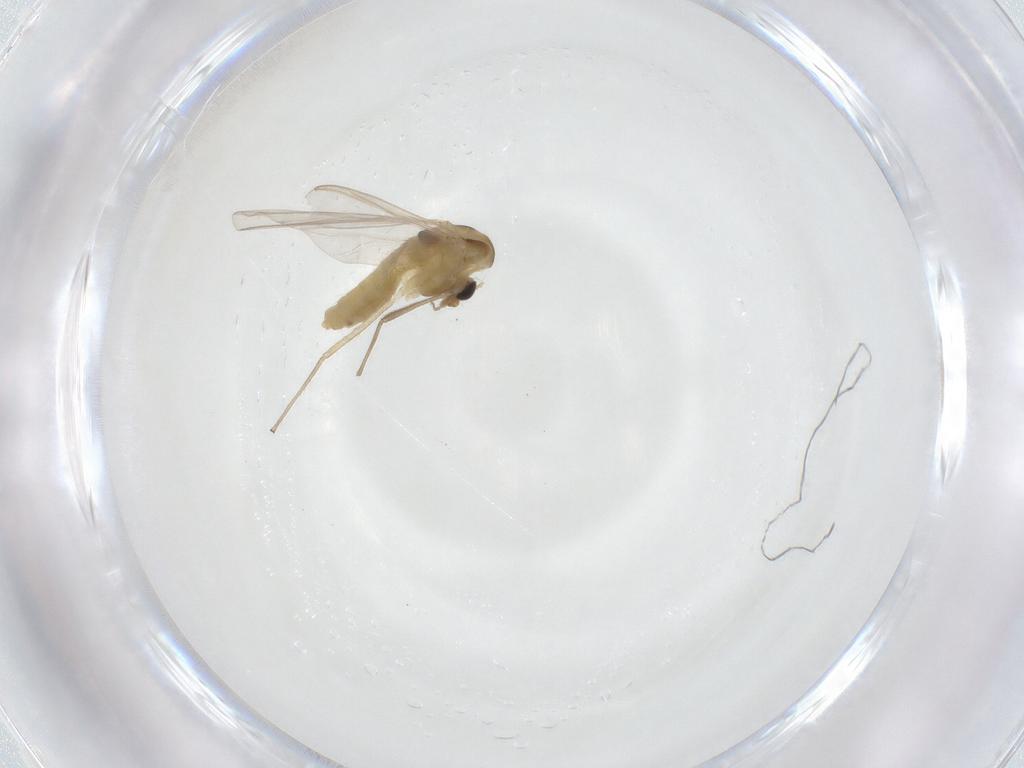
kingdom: Animalia
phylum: Arthropoda
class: Insecta
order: Diptera
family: Chironomidae
